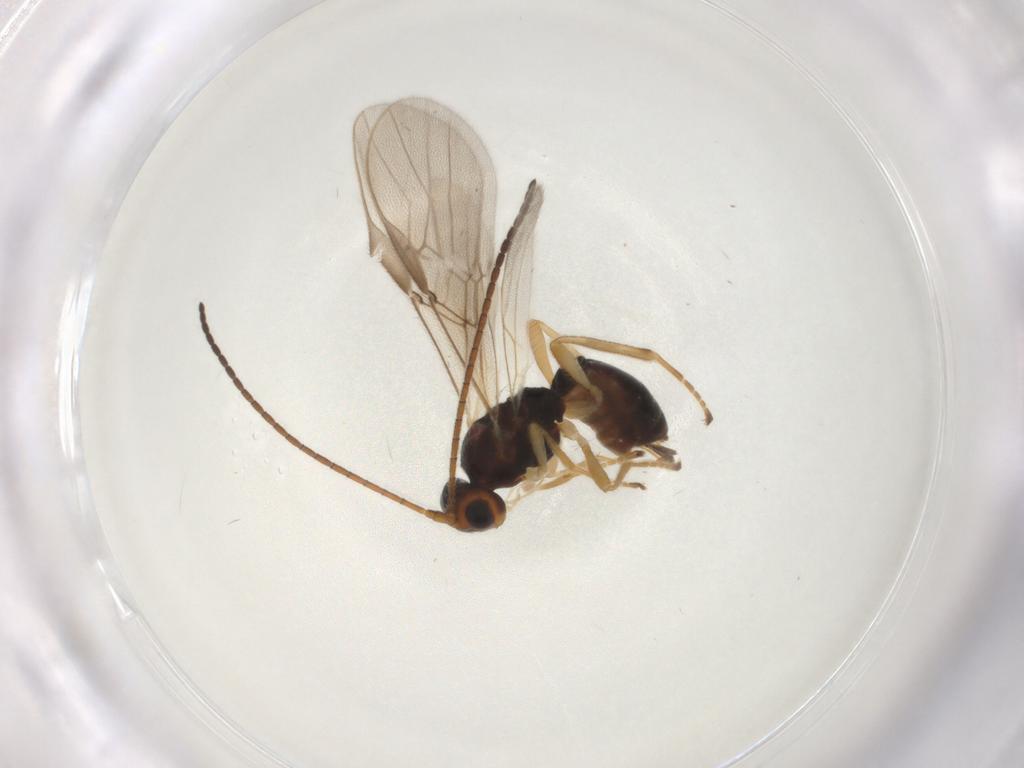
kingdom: Animalia
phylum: Arthropoda
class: Insecta
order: Hymenoptera
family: Braconidae
